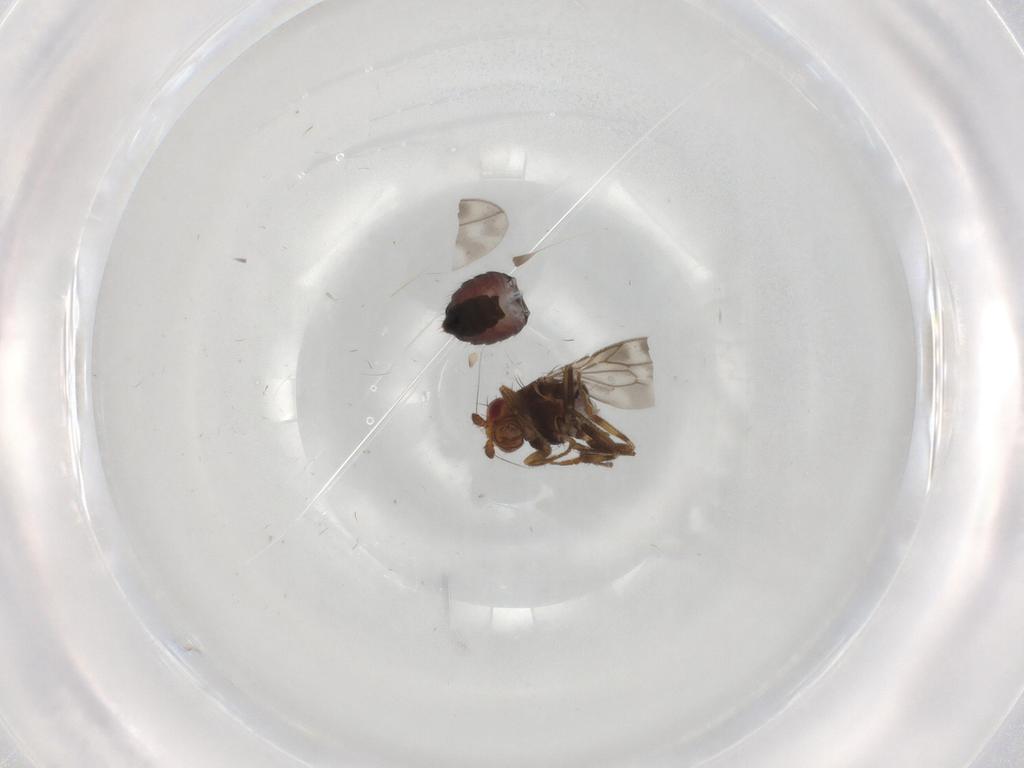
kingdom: Animalia
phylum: Arthropoda
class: Insecta
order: Diptera
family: Sphaeroceridae
